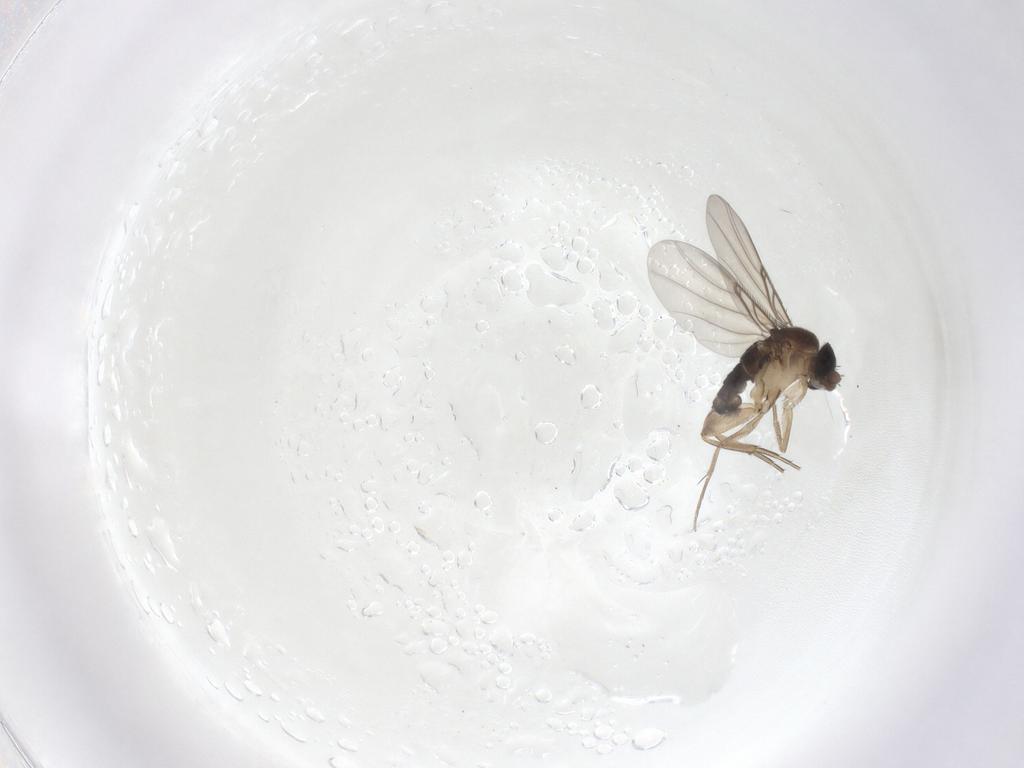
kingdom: Animalia
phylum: Arthropoda
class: Insecta
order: Diptera
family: Phoridae
